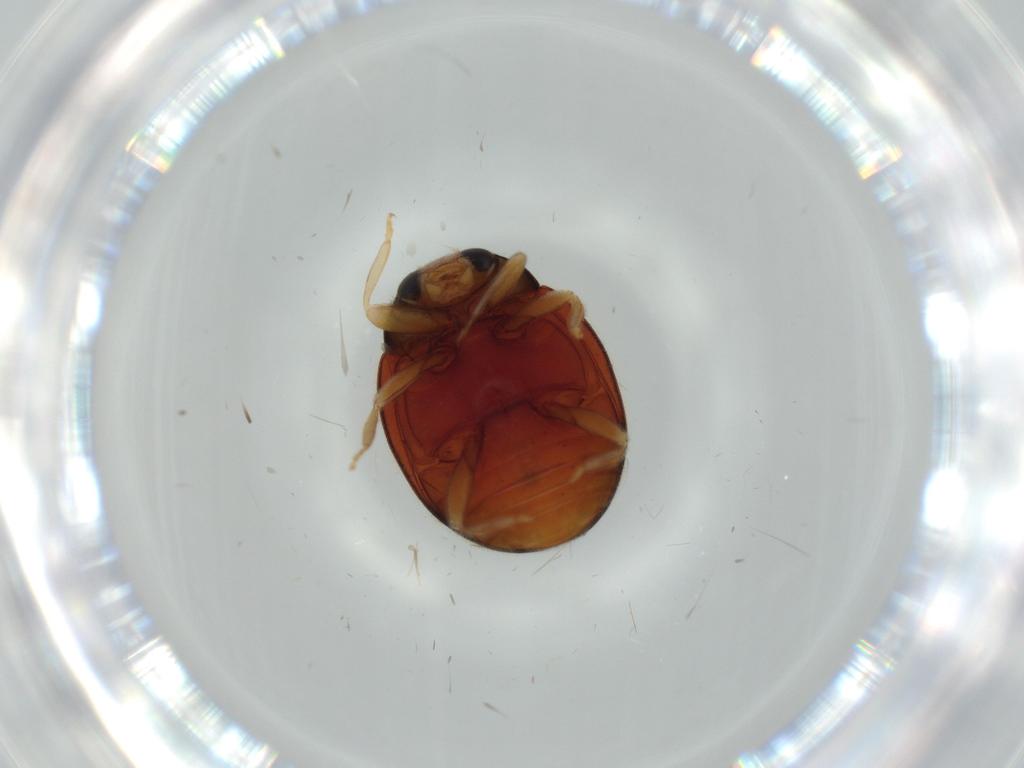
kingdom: Animalia
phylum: Arthropoda
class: Insecta
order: Coleoptera
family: Coccinellidae
